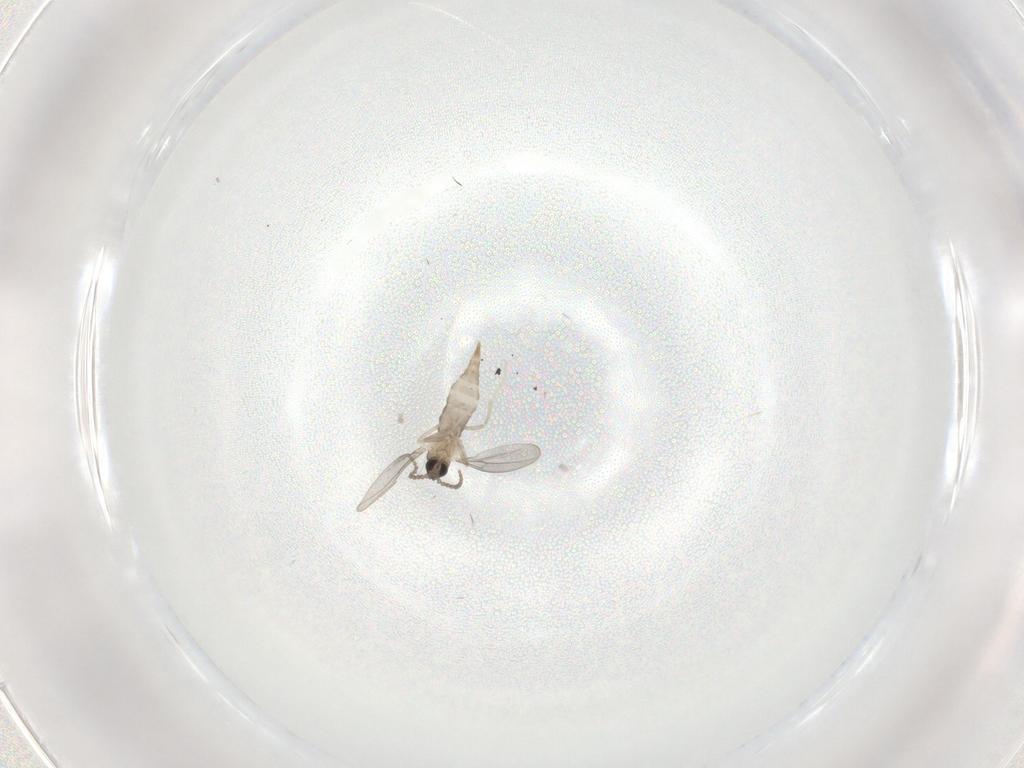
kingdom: Animalia
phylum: Arthropoda
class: Insecta
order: Diptera
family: Cecidomyiidae
